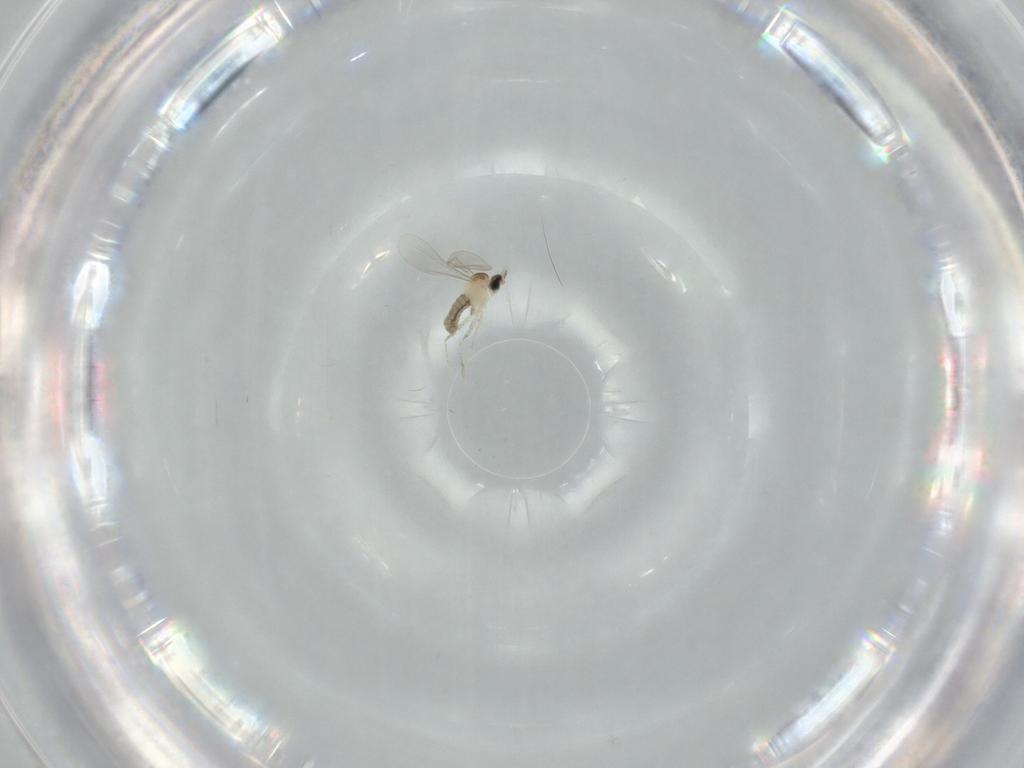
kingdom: Animalia
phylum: Arthropoda
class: Insecta
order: Diptera
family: Ceratopogonidae
